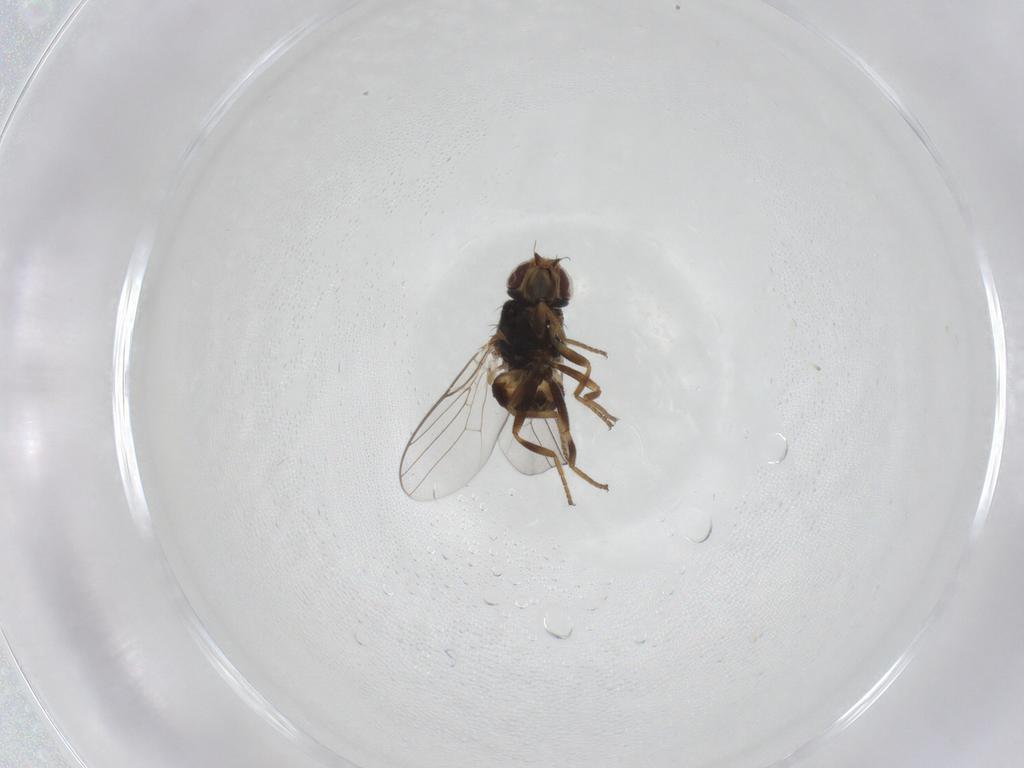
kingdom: Animalia
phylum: Arthropoda
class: Insecta
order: Diptera
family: Chloropidae
